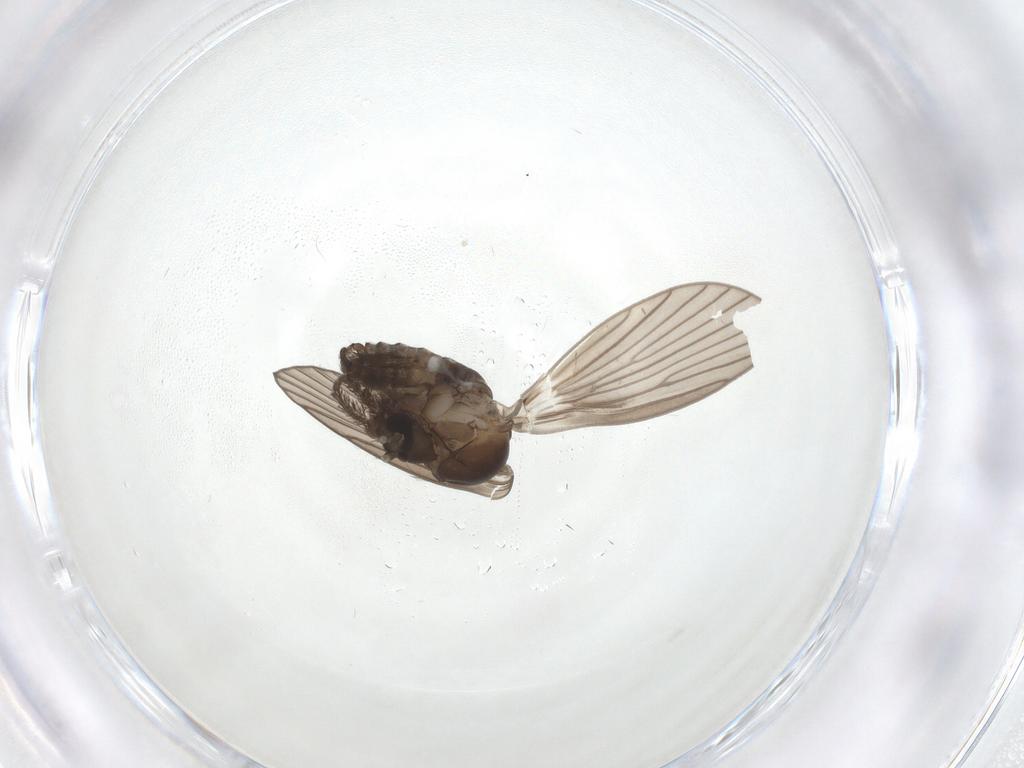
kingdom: Animalia
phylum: Arthropoda
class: Insecta
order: Diptera
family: Psychodidae
